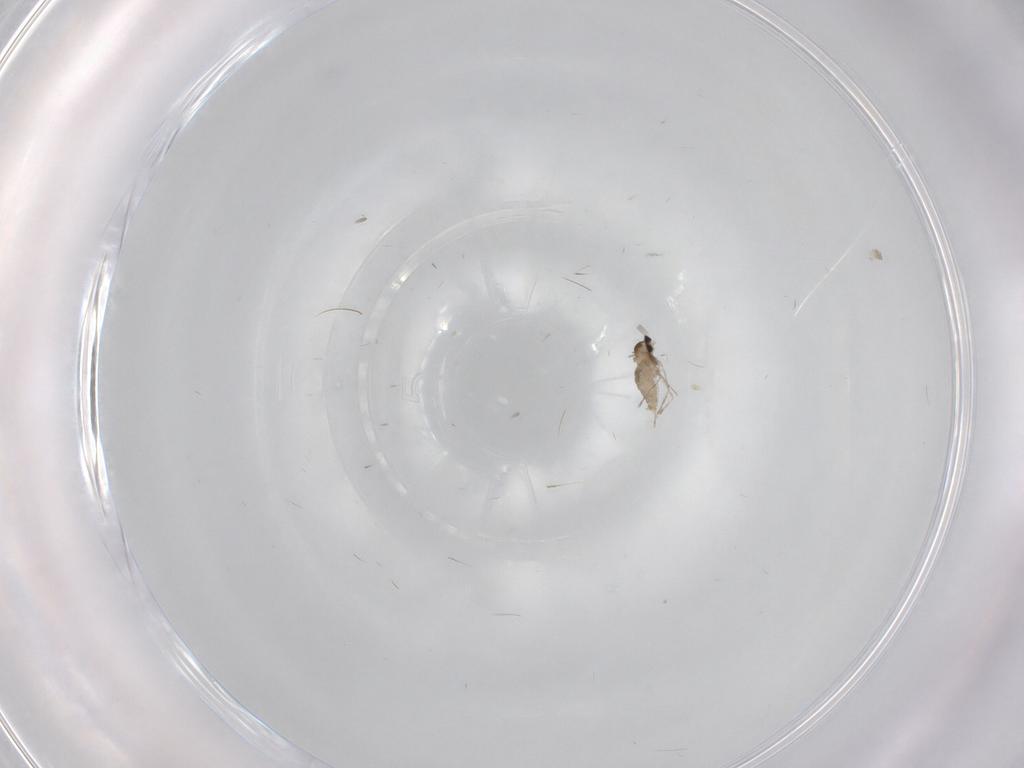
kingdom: Animalia
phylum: Arthropoda
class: Insecta
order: Diptera
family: Cecidomyiidae
